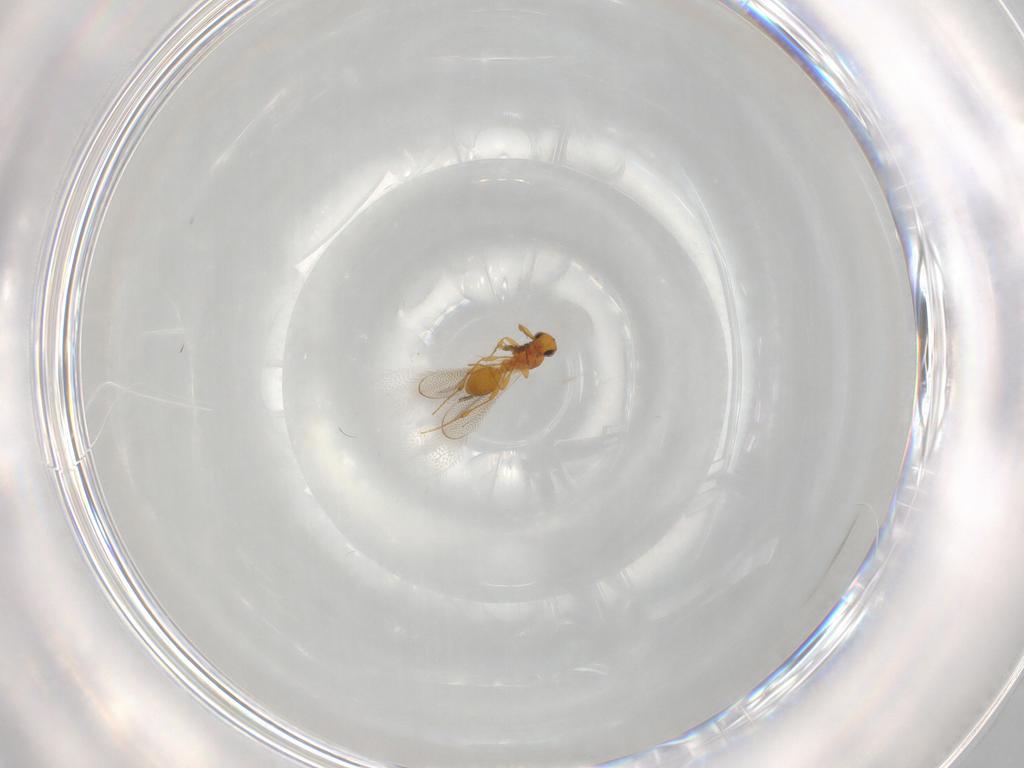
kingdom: Animalia
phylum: Arthropoda
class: Insecta
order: Hymenoptera
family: Platygastridae
